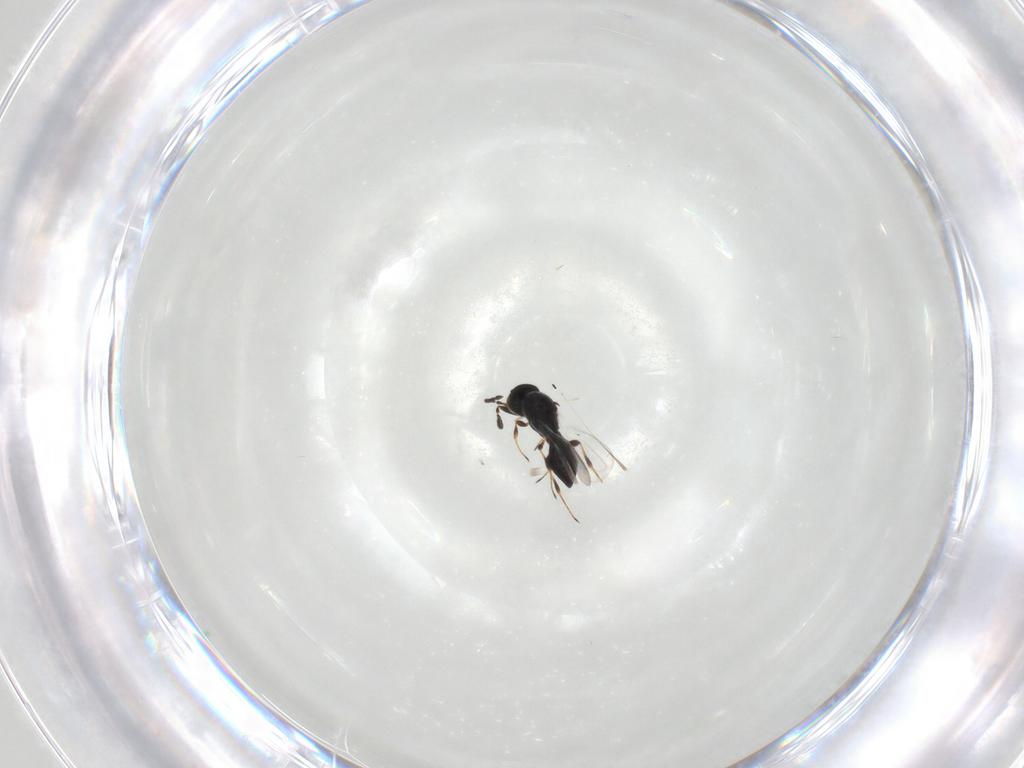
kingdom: Animalia
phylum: Arthropoda
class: Insecta
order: Hymenoptera
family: Platygastridae
